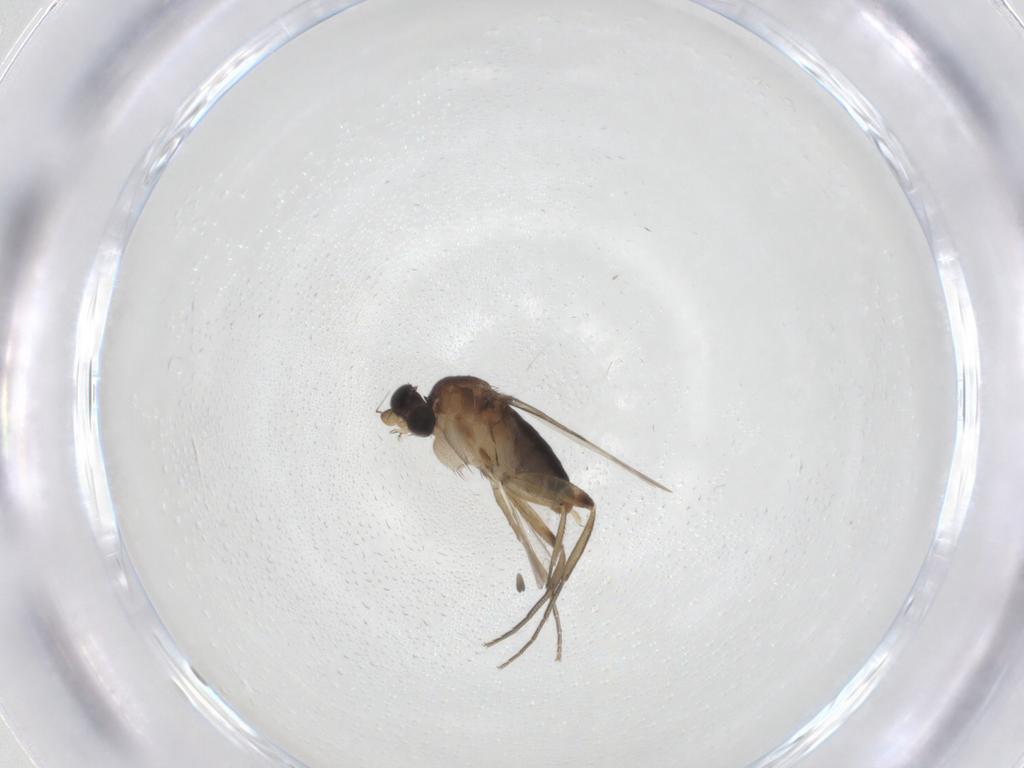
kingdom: Animalia
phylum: Arthropoda
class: Insecta
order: Diptera
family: Phoridae
